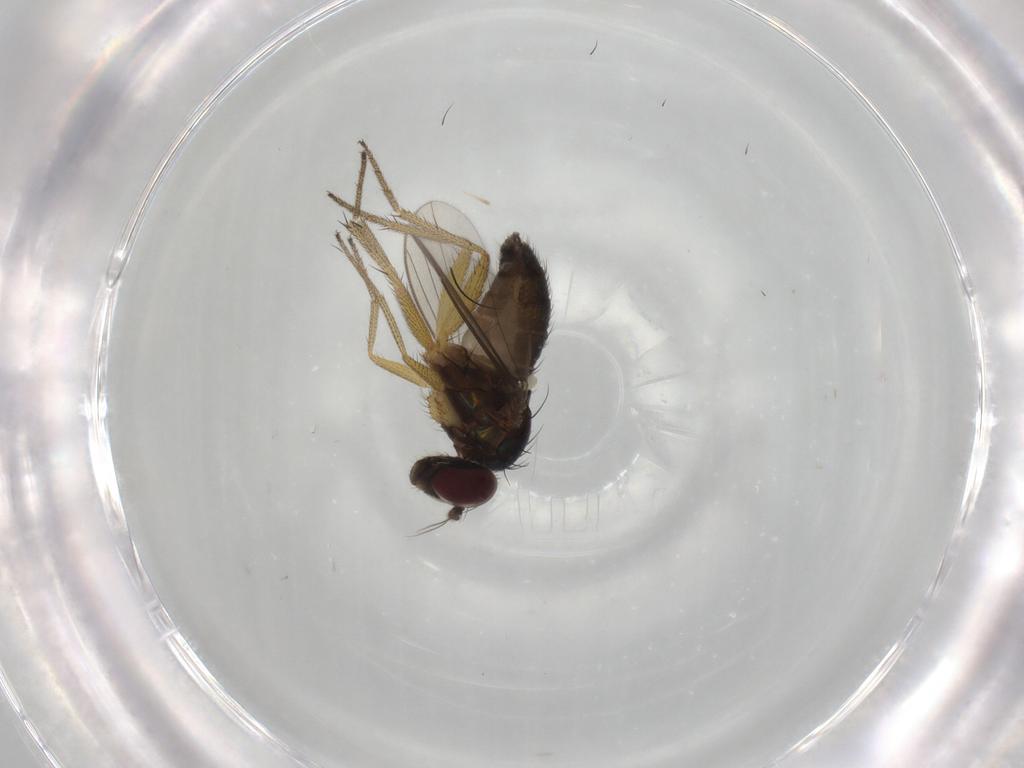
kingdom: Animalia
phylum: Arthropoda
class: Insecta
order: Diptera
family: Dolichopodidae
